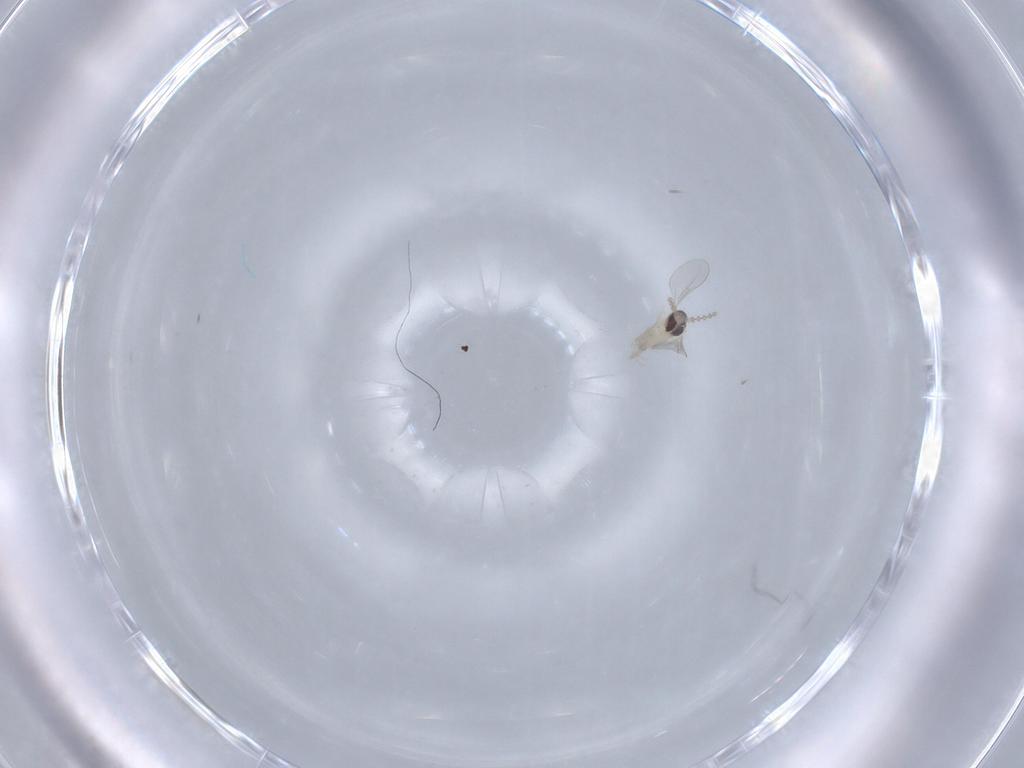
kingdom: Animalia
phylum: Arthropoda
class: Insecta
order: Diptera
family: Cecidomyiidae
